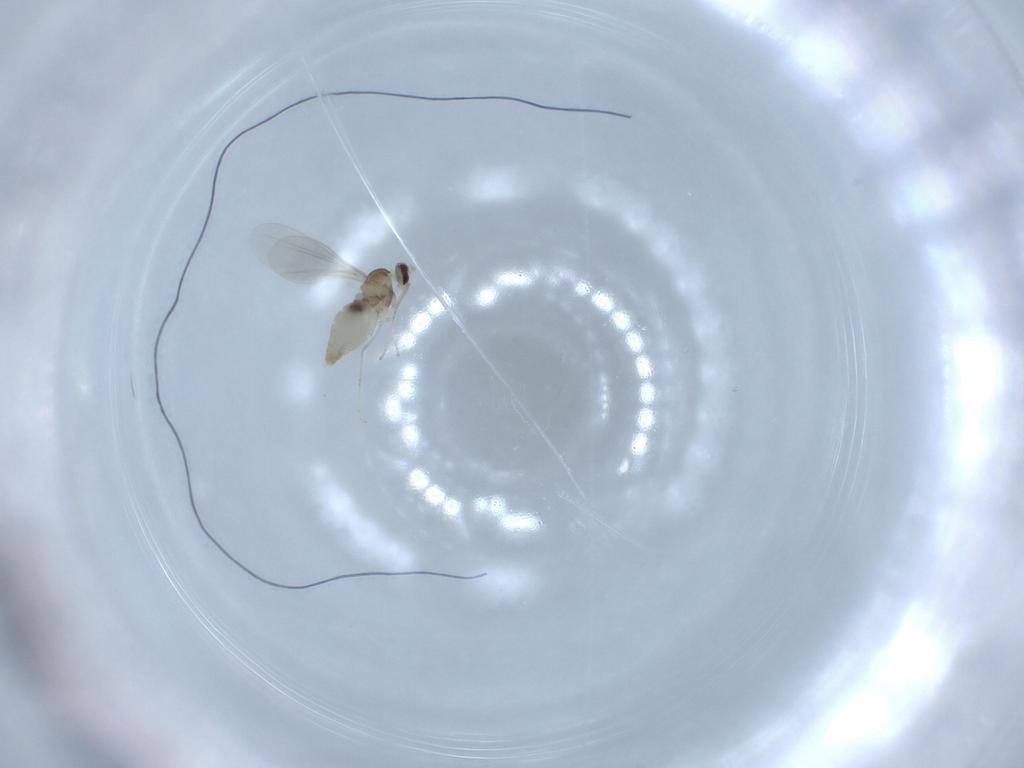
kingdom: Animalia
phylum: Arthropoda
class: Insecta
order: Diptera
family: Cecidomyiidae
